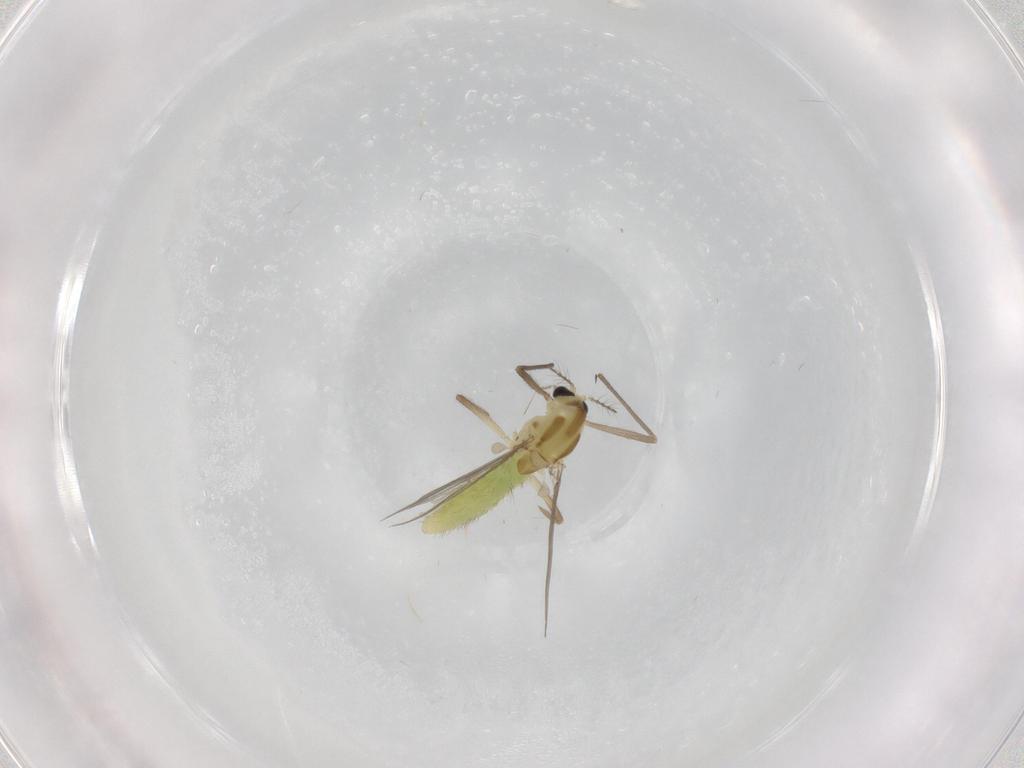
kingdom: Animalia
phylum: Arthropoda
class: Insecta
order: Diptera
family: Chironomidae
